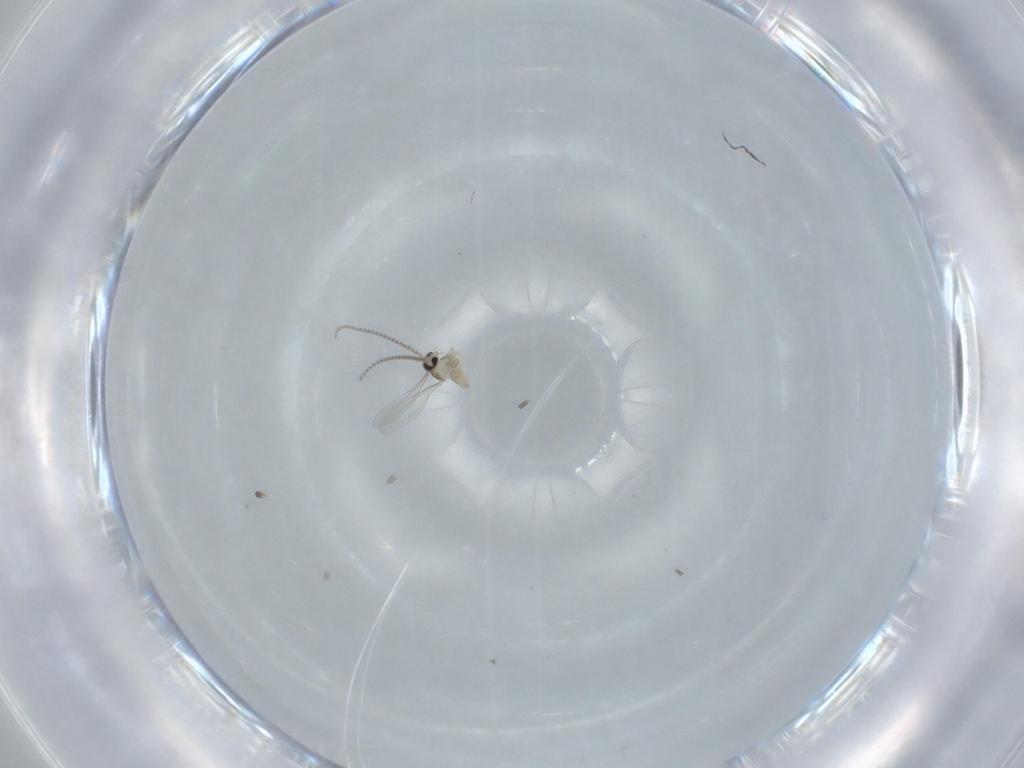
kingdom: Animalia
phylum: Arthropoda
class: Insecta
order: Diptera
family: Cecidomyiidae
